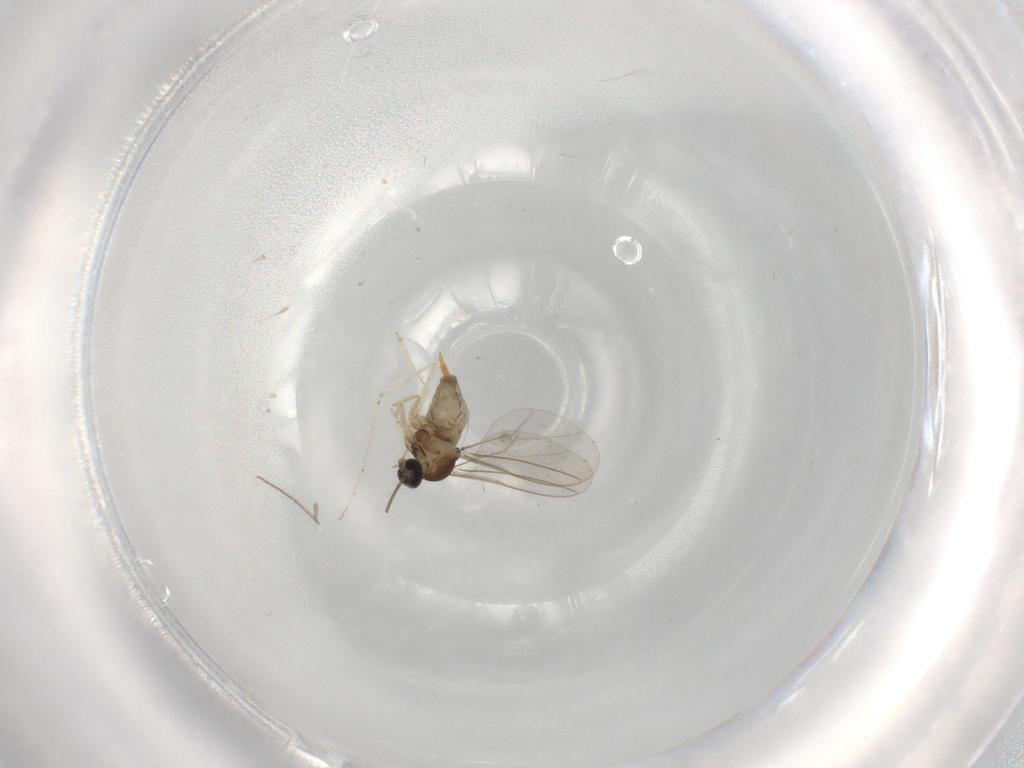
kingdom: Animalia
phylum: Arthropoda
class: Insecta
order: Diptera
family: Cecidomyiidae
